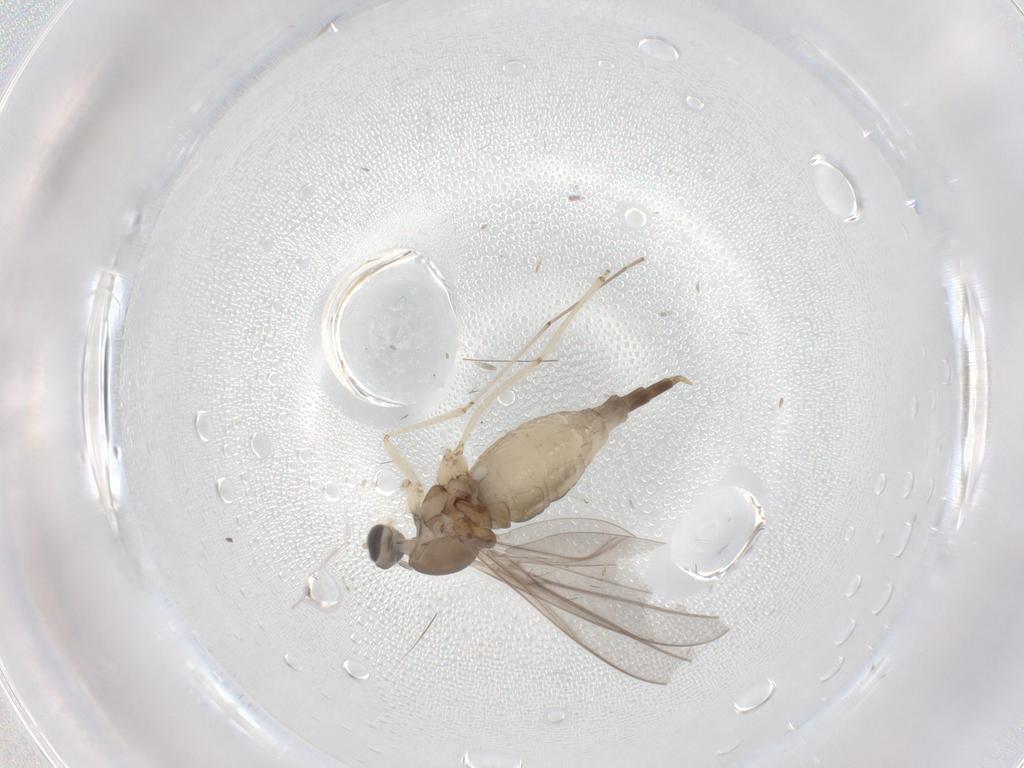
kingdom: Animalia
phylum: Arthropoda
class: Insecta
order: Diptera
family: Cecidomyiidae
